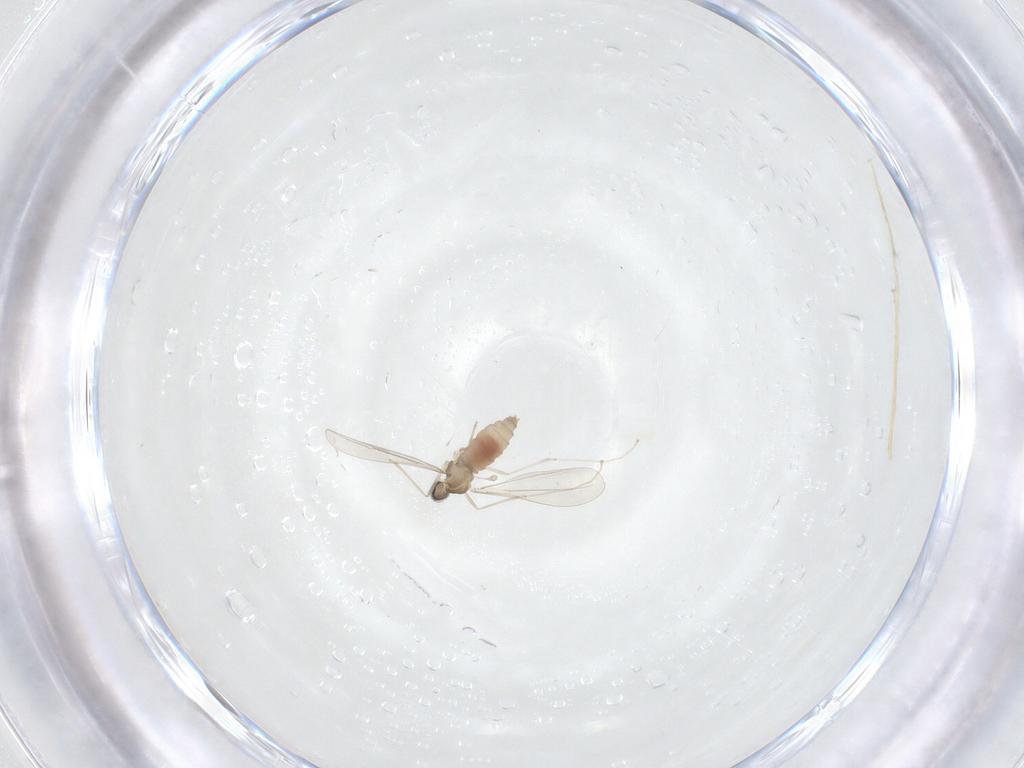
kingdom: Animalia
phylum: Arthropoda
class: Insecta
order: Diptera
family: Cecidomyiidae
